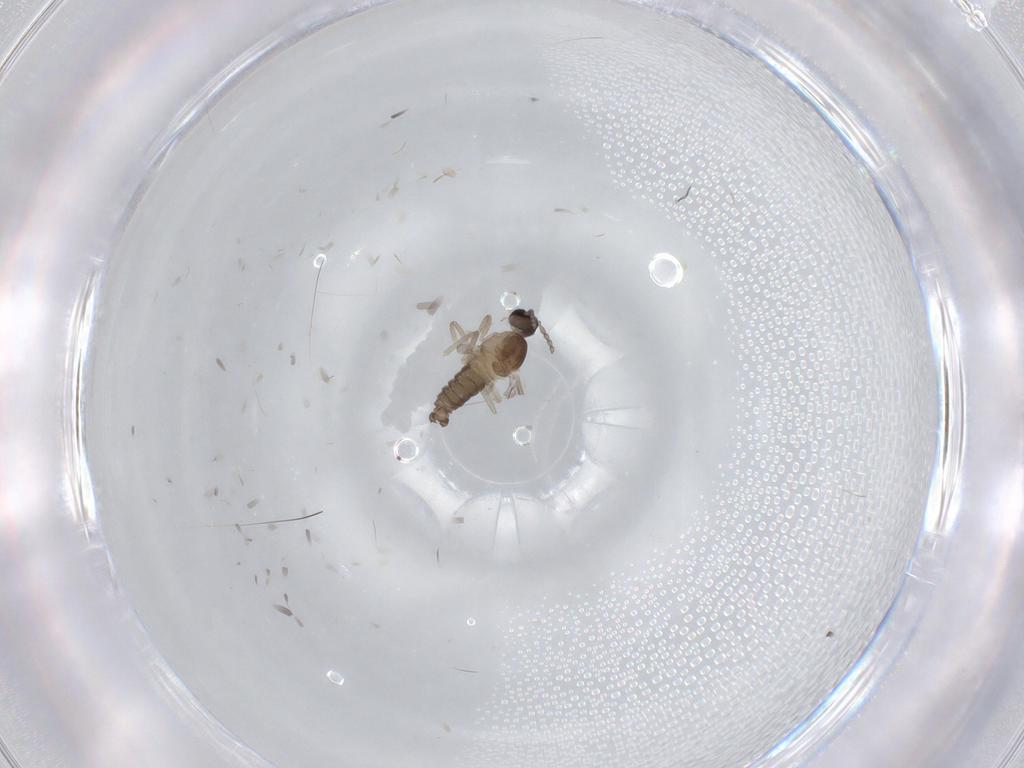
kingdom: Animalia
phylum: Arthropoda
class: Insecta
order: Diptera
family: Cecidomyiidae
